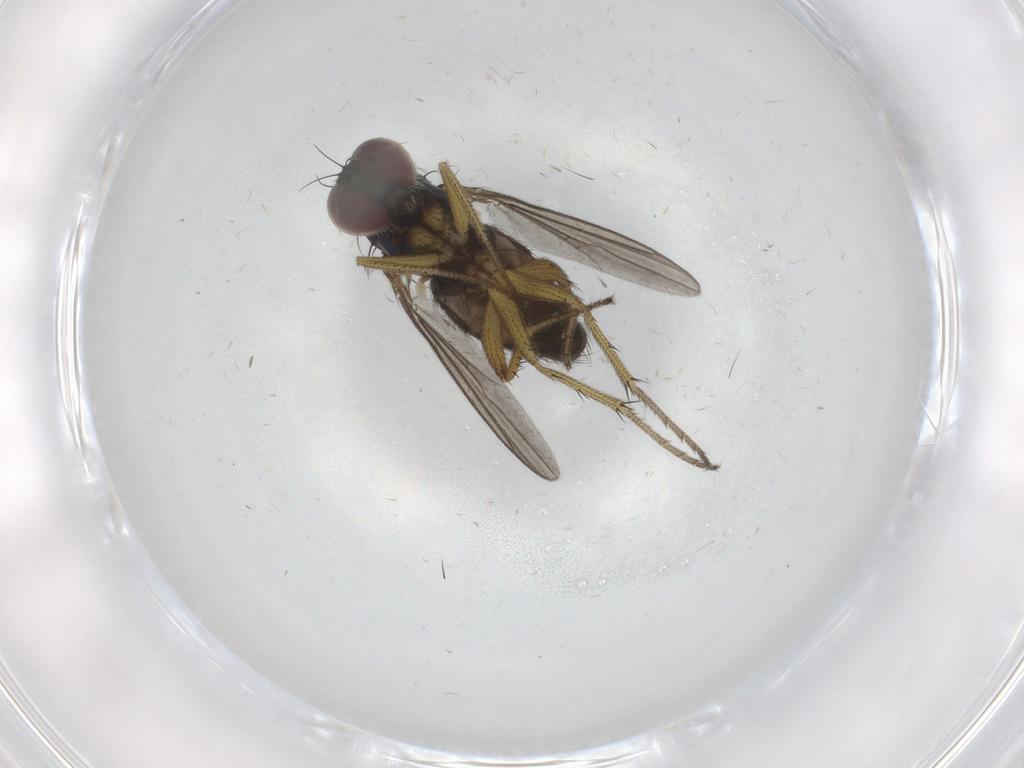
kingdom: Animalia
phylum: Arthropoda
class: Insecta
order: Diptera
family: Dolichopodidae
